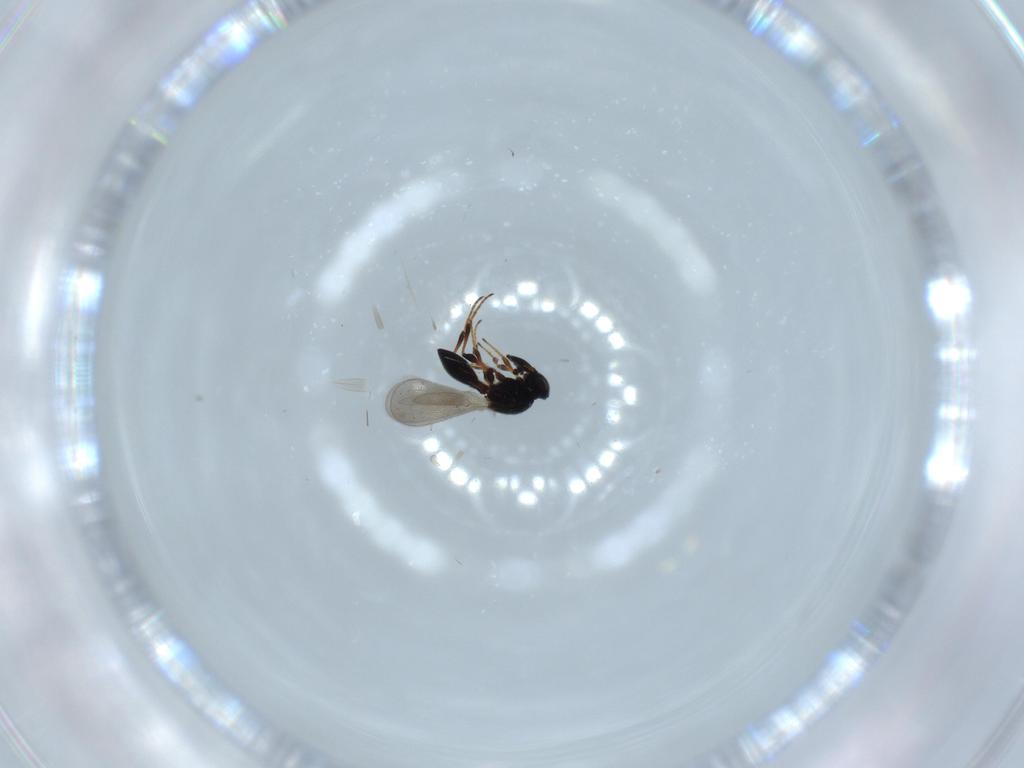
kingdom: Animalia
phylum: Arthropoda
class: Insecta
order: Hymenoptera
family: Platygastridae
